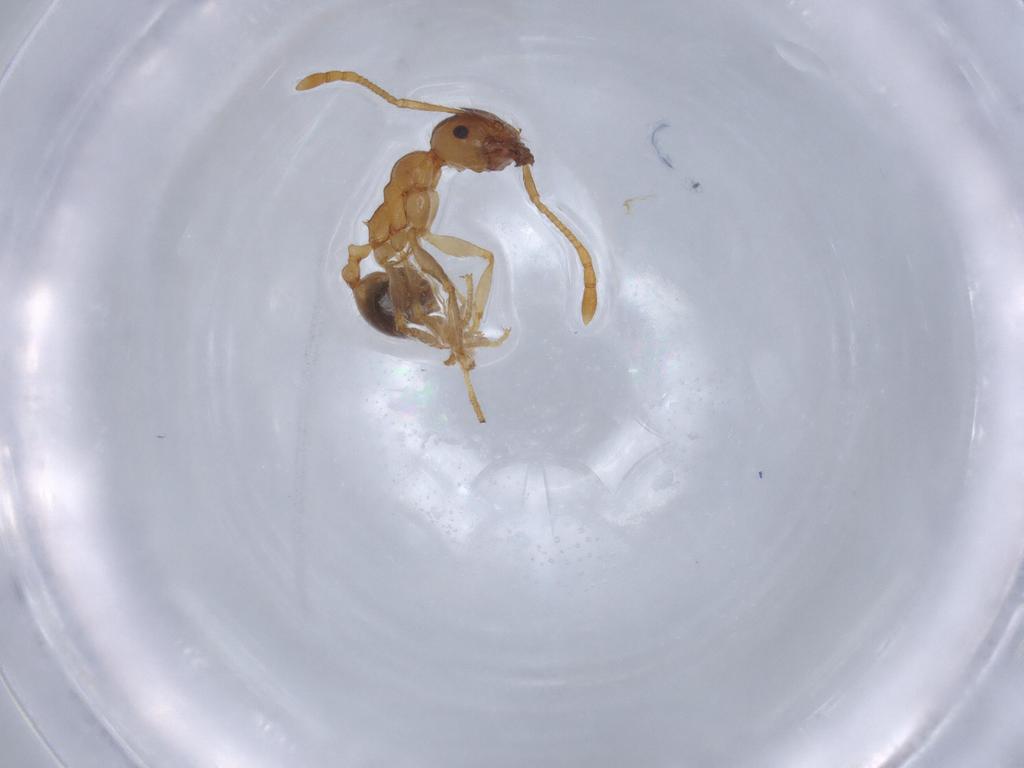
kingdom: Animalia
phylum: Arthropoda
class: Insecta
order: Hymenoptera
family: Formicidae
